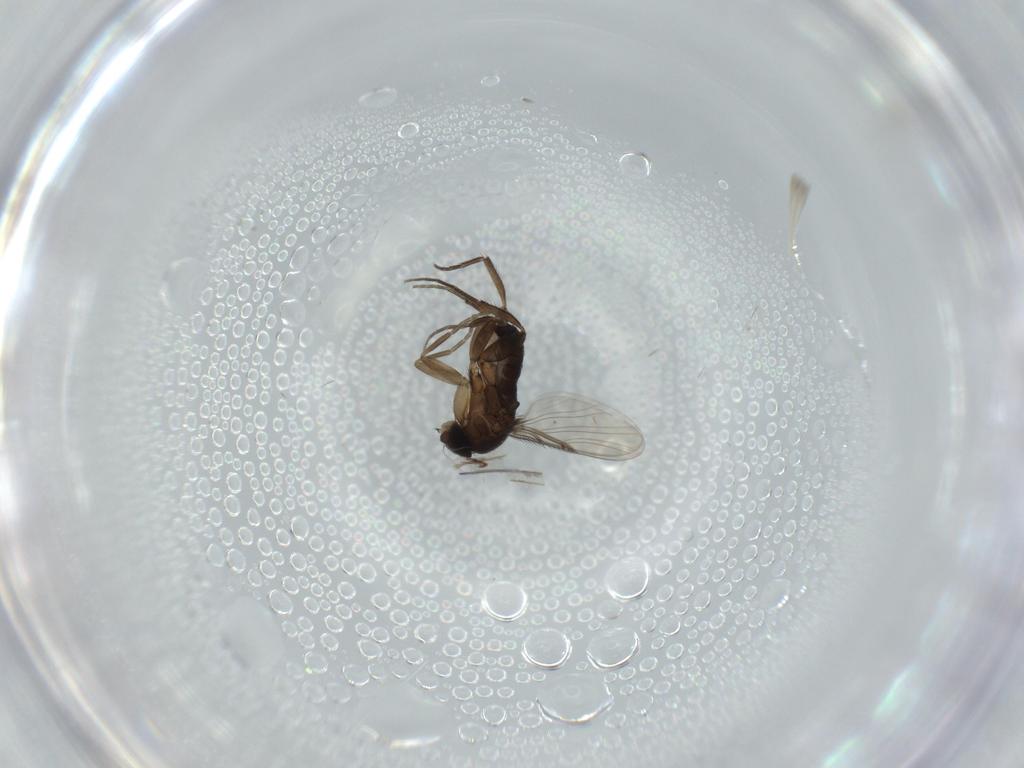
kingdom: Animalia
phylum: Arthropoda
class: Insecta
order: Diptera
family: Phoridae
